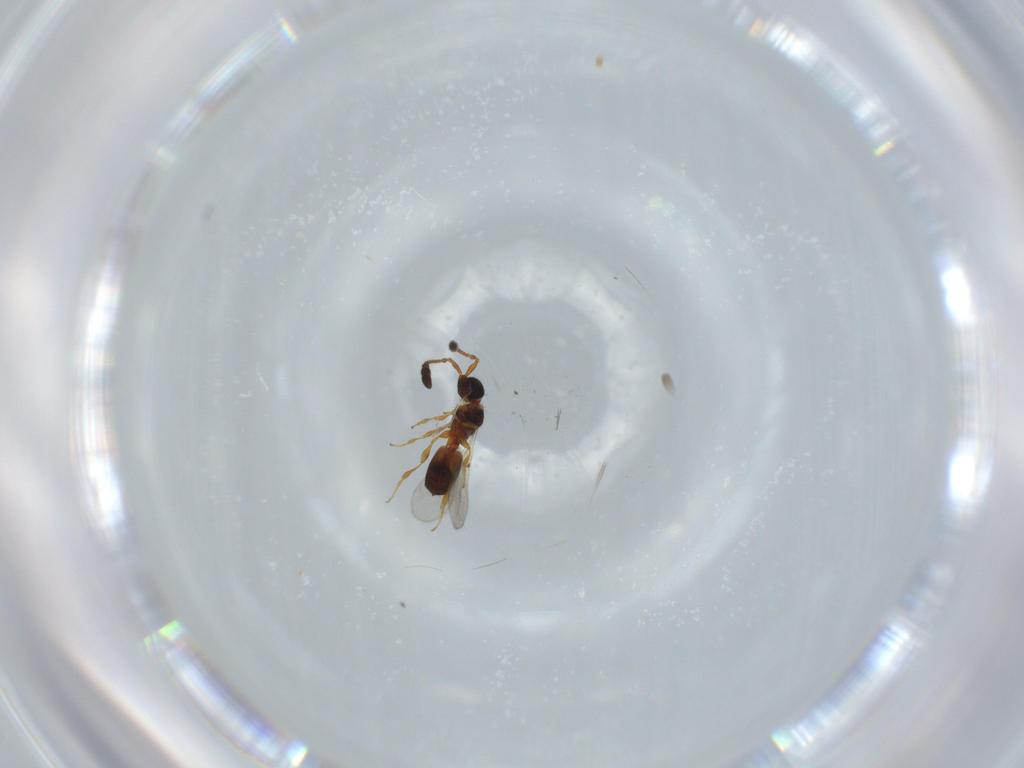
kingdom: Animalia
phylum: Arthropoda
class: Insecta
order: Hymenoptera
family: Diapriidae
